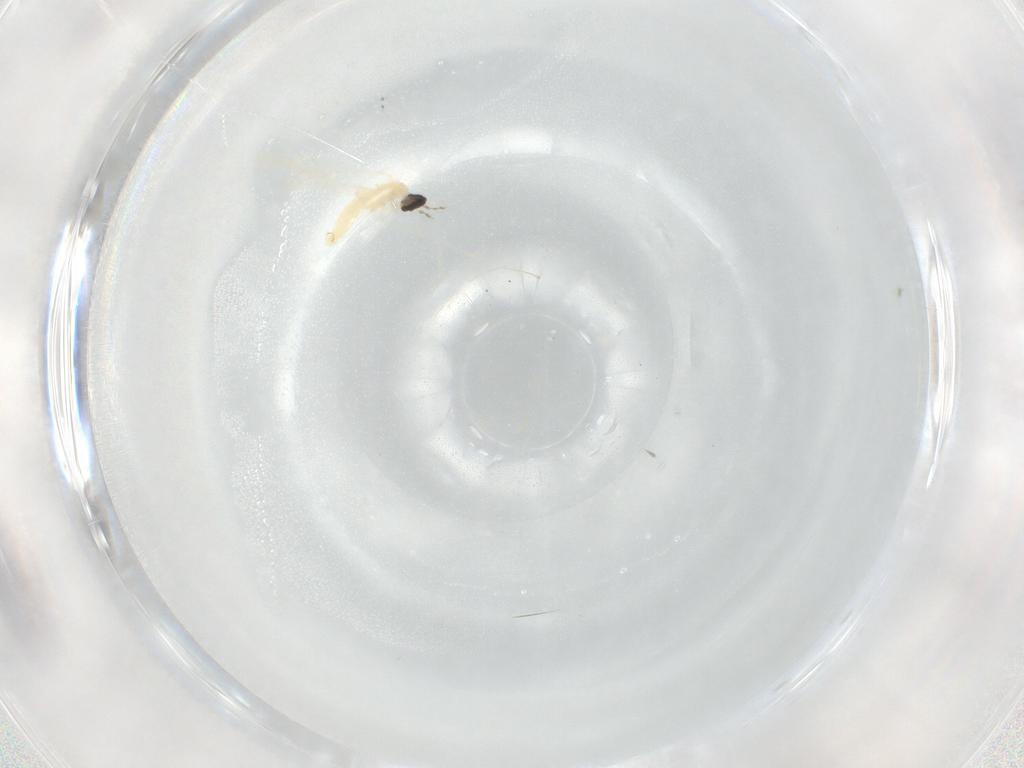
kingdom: Animalia
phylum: Arthropoda
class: Insecta
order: Diptera
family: Cecidomyiidae
